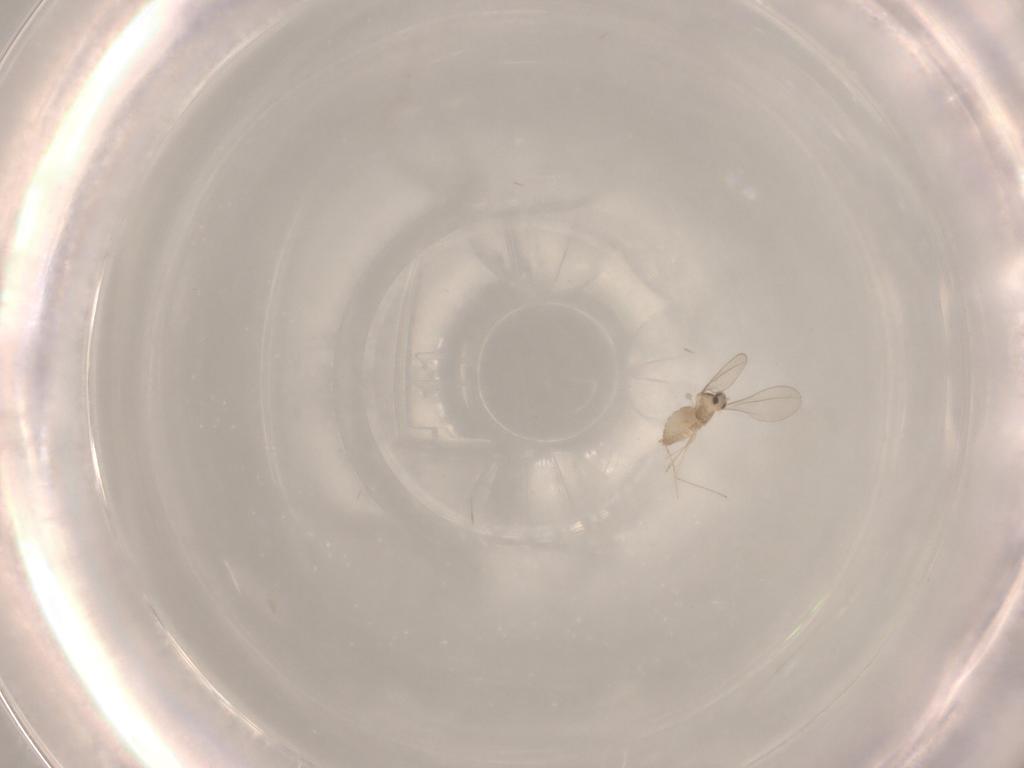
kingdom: Animalia
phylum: Arthropoda
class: Insecta
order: Diptera
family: Cecidomyiidae
